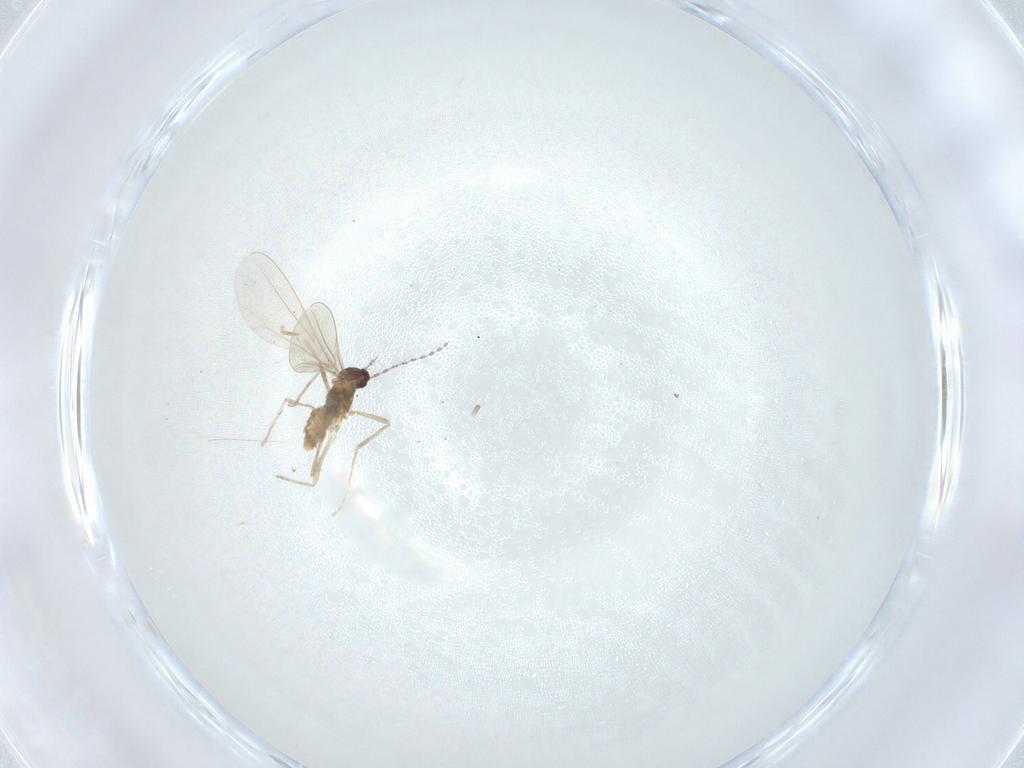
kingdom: Animalia
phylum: Arthropoda
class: Insecta
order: Diptera
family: Cecidomyiidae
